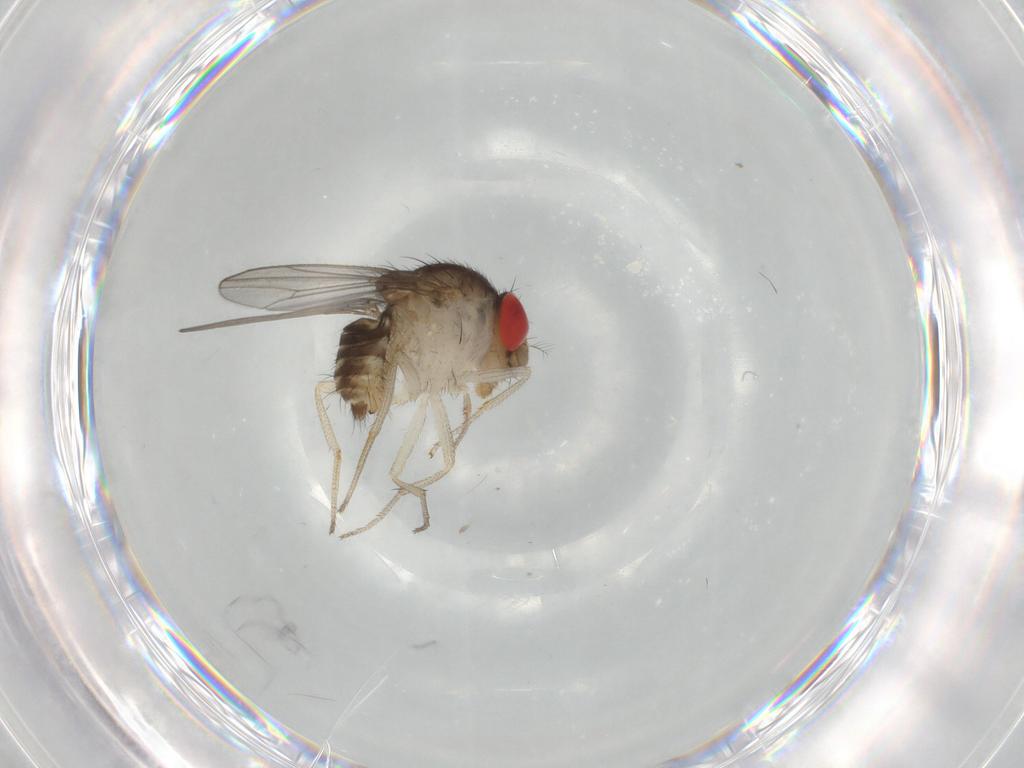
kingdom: Animalia
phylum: Arthropoda
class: Insecta
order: Diptera
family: Drosophilidae
